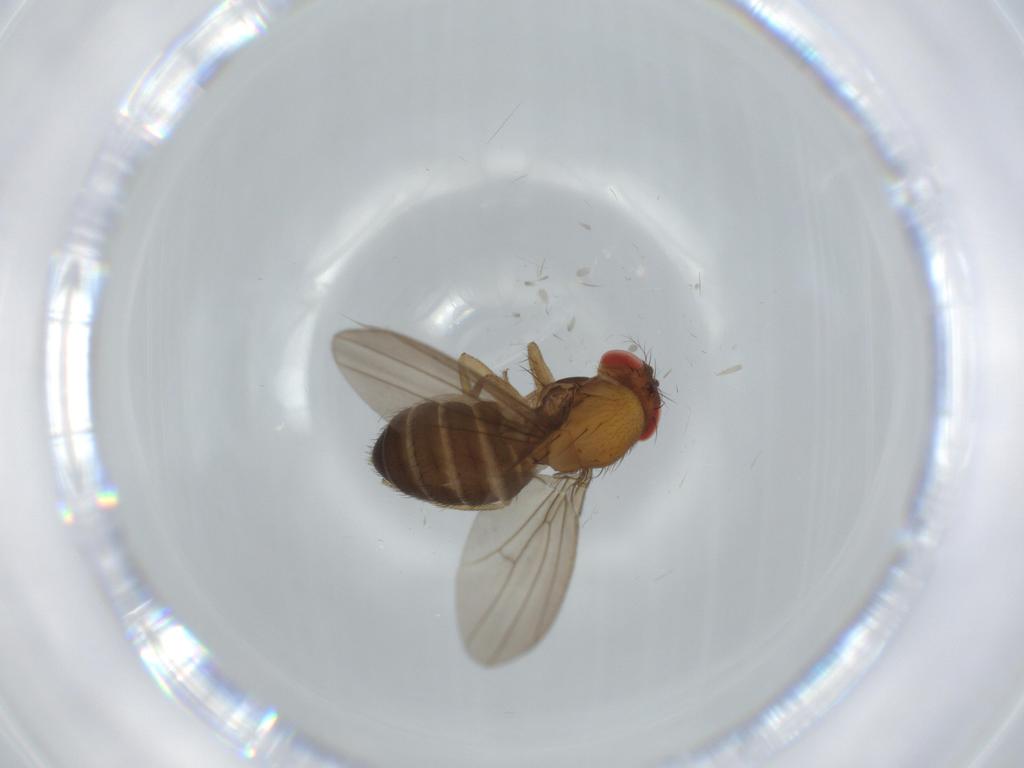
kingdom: Animalia
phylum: Arthropoda
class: Insecta
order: Diptera
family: Drosophilidae
